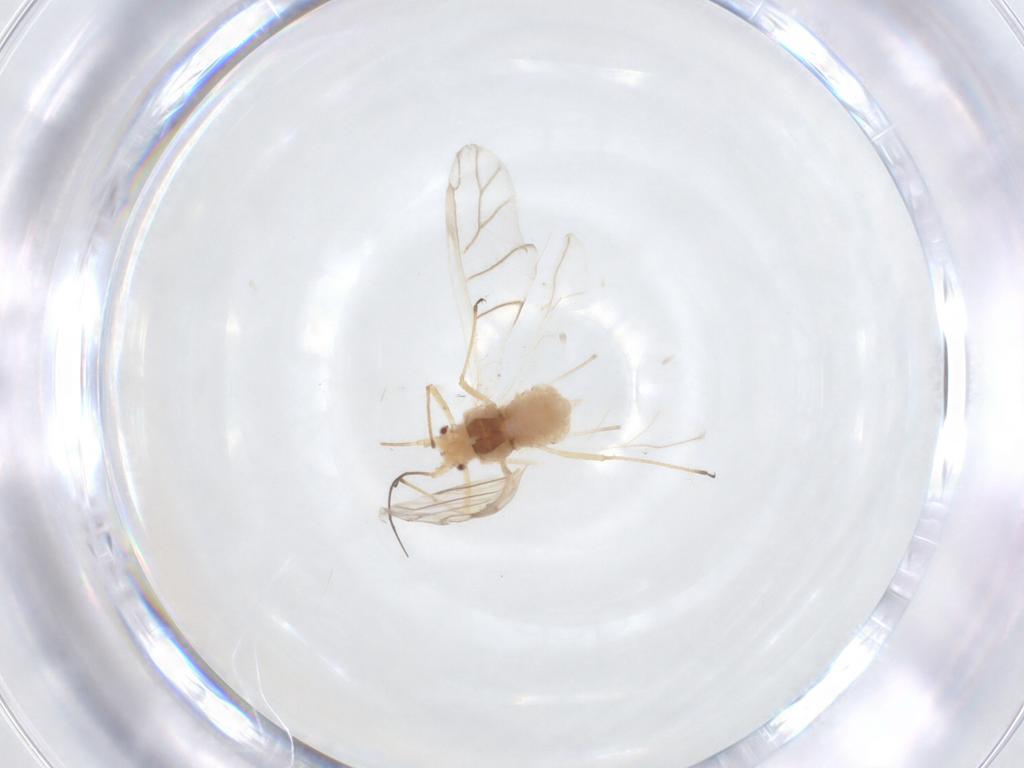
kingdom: Animalia
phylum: Arthropoda
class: Insecta
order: Hemiptera
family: Aphididae
